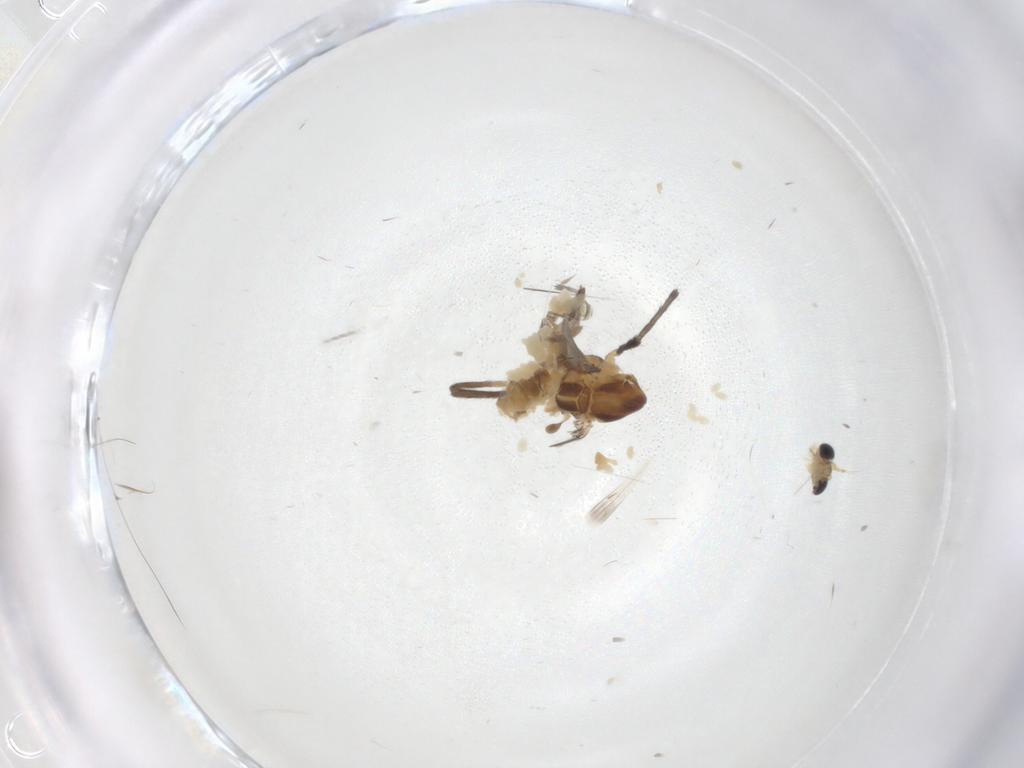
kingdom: Animalia
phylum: Arthropoda
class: Insecta
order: Diptera
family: Chironomidae
